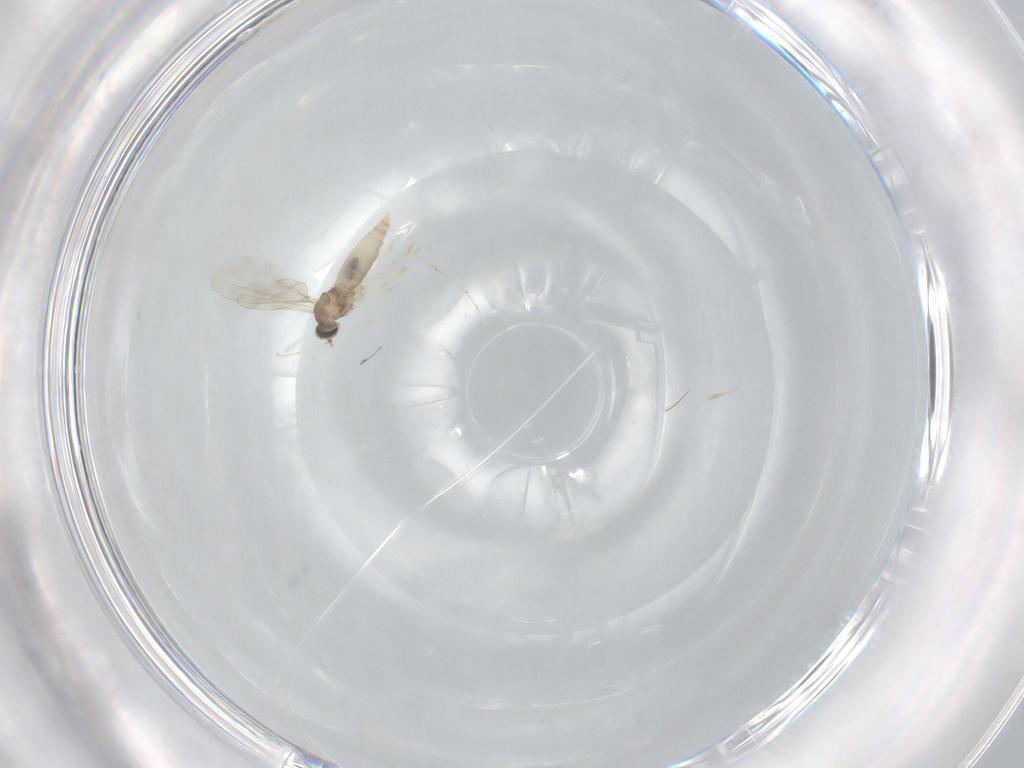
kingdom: Animalia
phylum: Arthropoda
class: Insecta
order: Diptera
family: Cecidomyiidae
